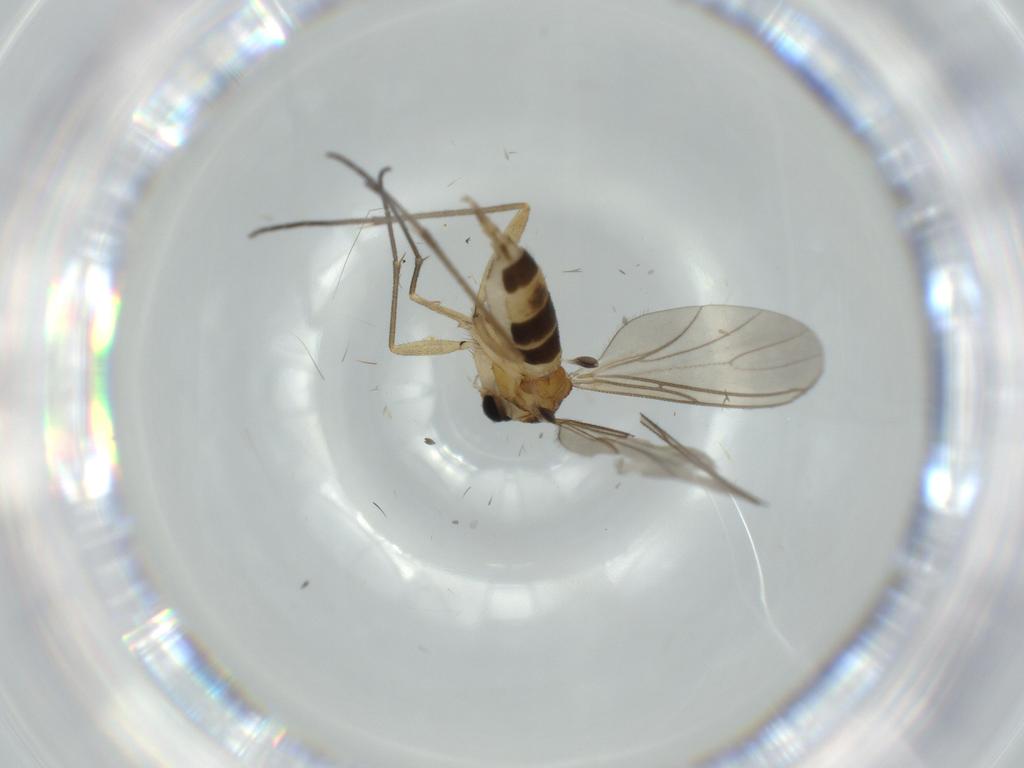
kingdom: Animalia
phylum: Arthropoda
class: Insecta
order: Diptera
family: Sciaridae
